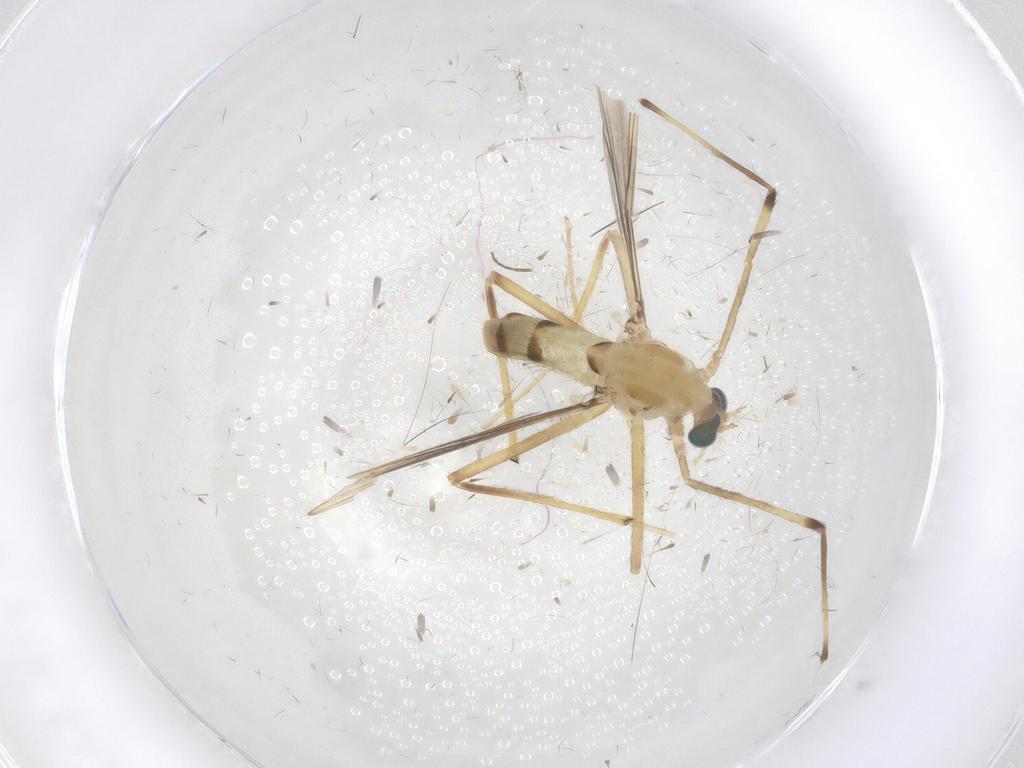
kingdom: Animalia
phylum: Arthropoda
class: Insecta
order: Diptera
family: Chironomidae
